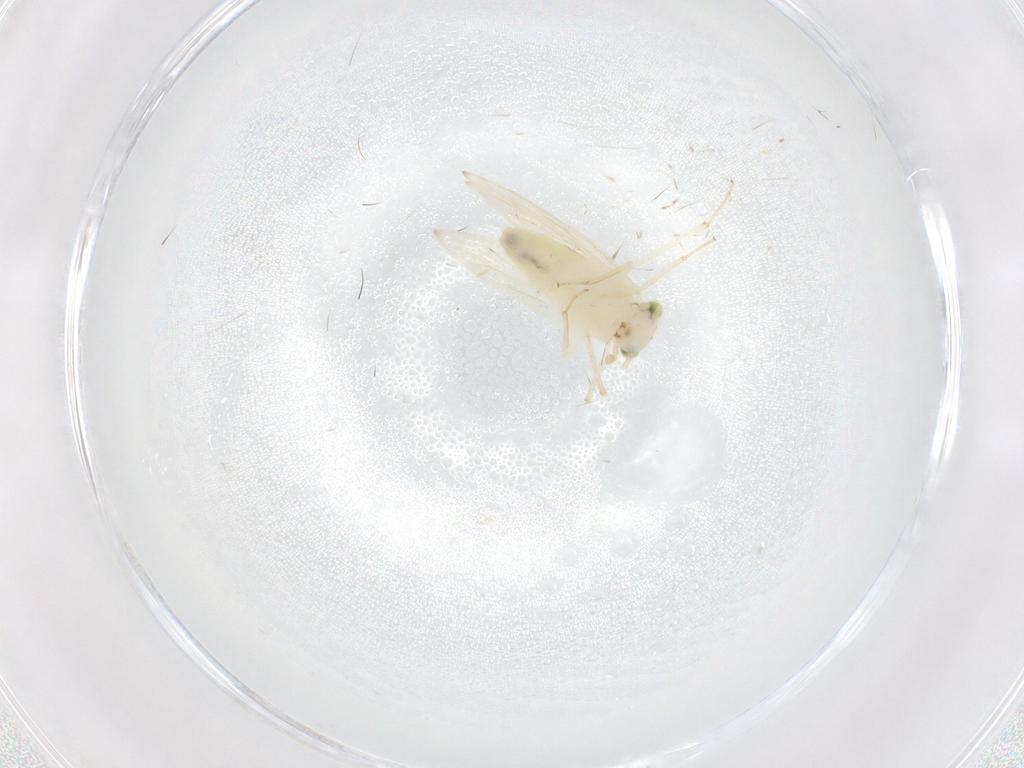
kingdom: Animalia
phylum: Arthropoda
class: Insecta
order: Psocodea
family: Lepidopsocidae
